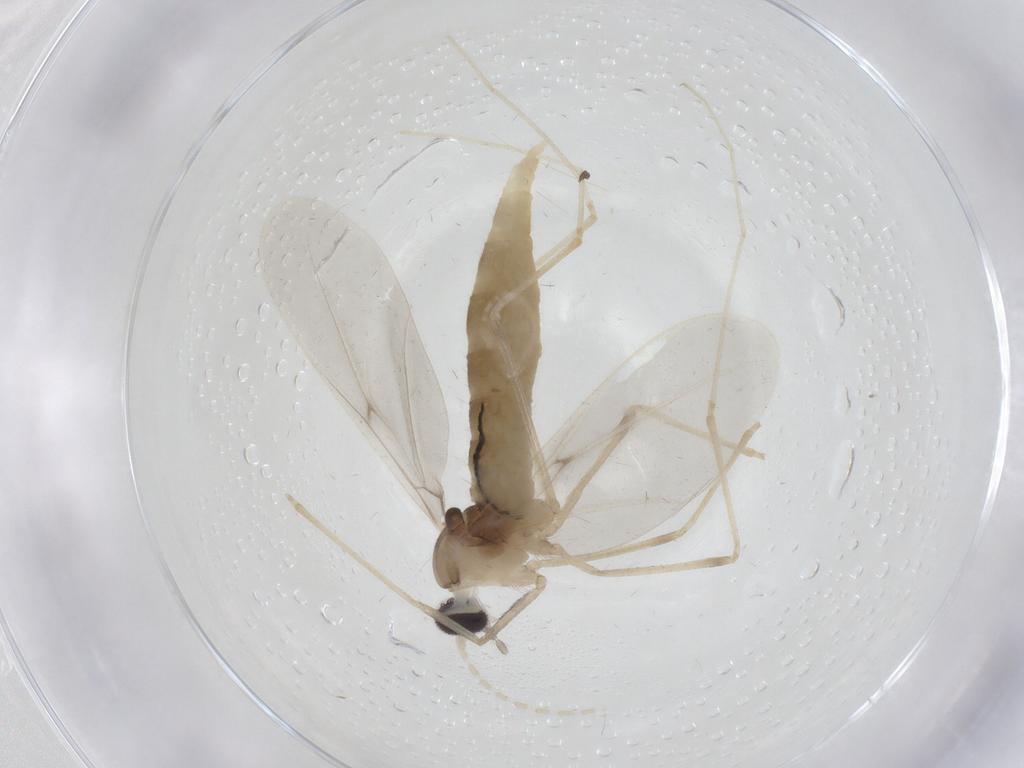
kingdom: Animalia
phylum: Arthropoda
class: Insecta
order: Diptera
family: Cecidomyiidae
